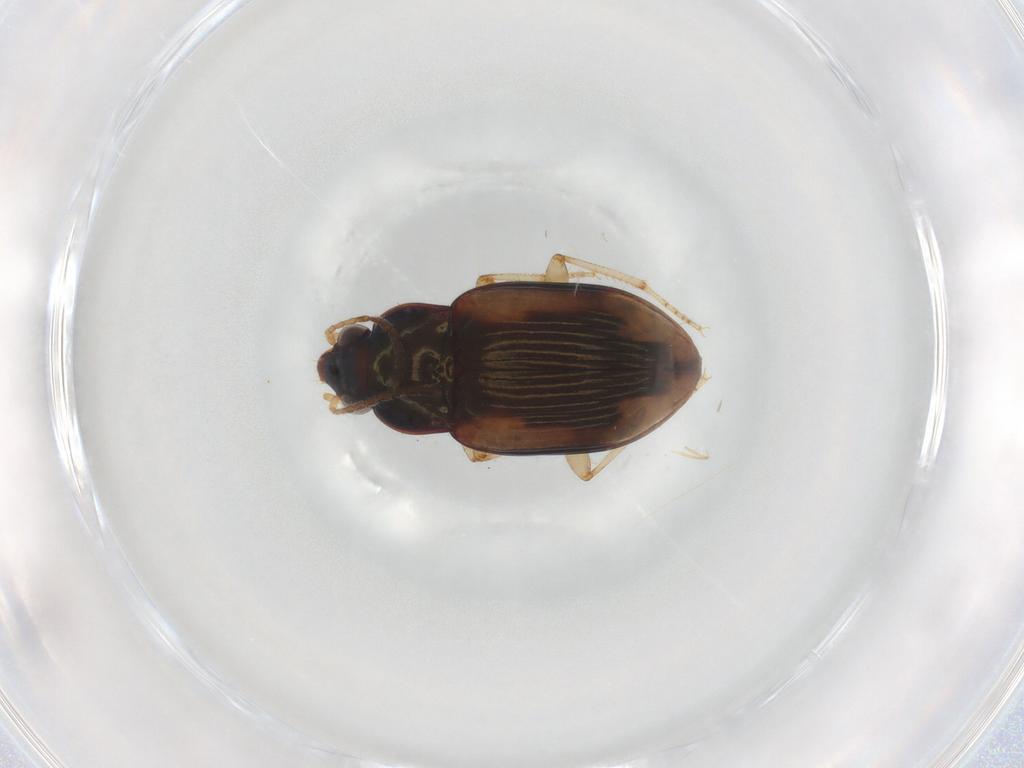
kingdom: Animalia
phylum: Arthropoda
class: Insecta
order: Coleoptera
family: Carabidae
